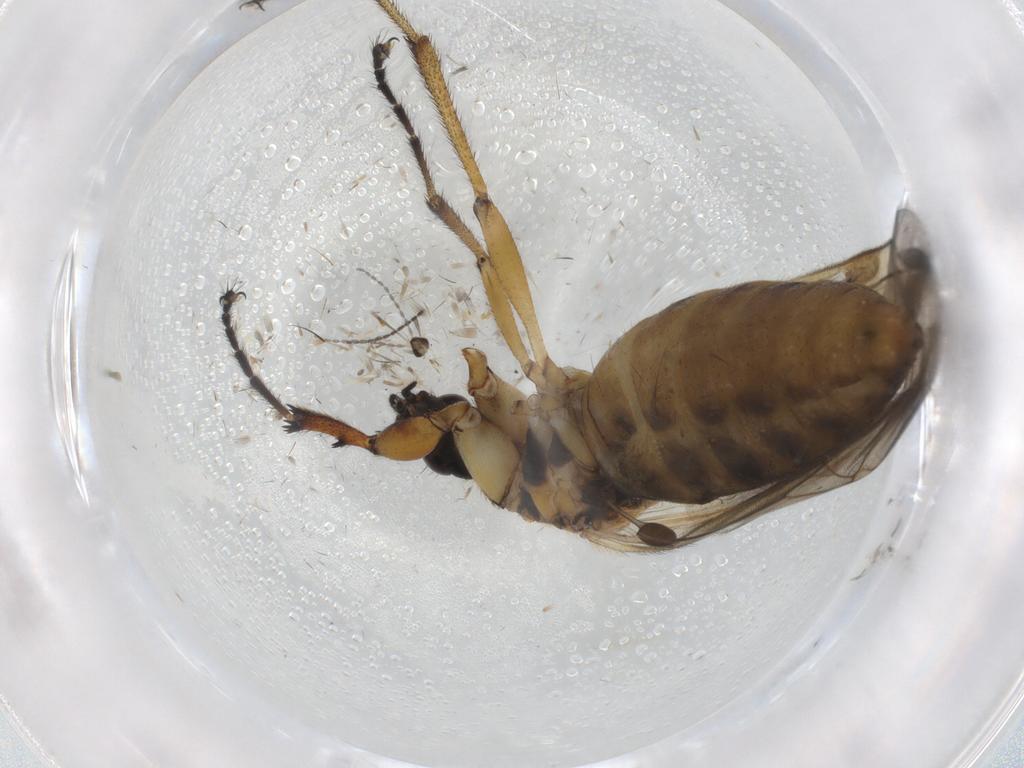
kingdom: Animalia
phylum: Arthropoda
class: Insecta
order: Diptera
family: Bibionidae
